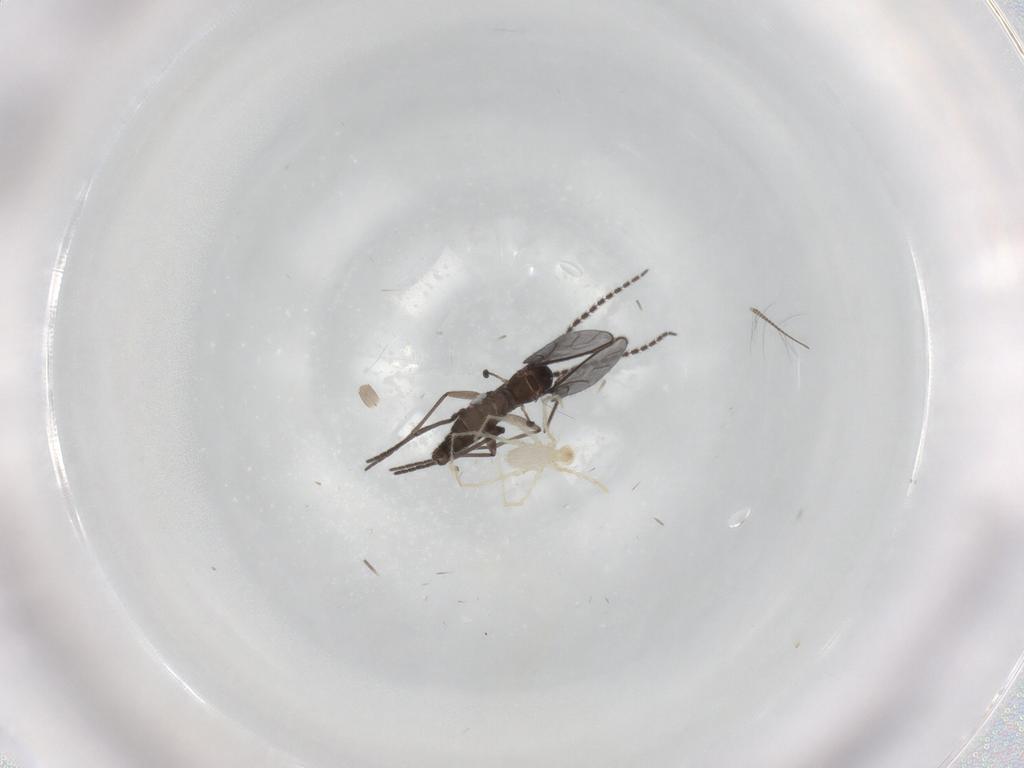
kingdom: Animalia
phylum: Arthropoda
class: Insecta
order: Diptera
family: Chironomidae
